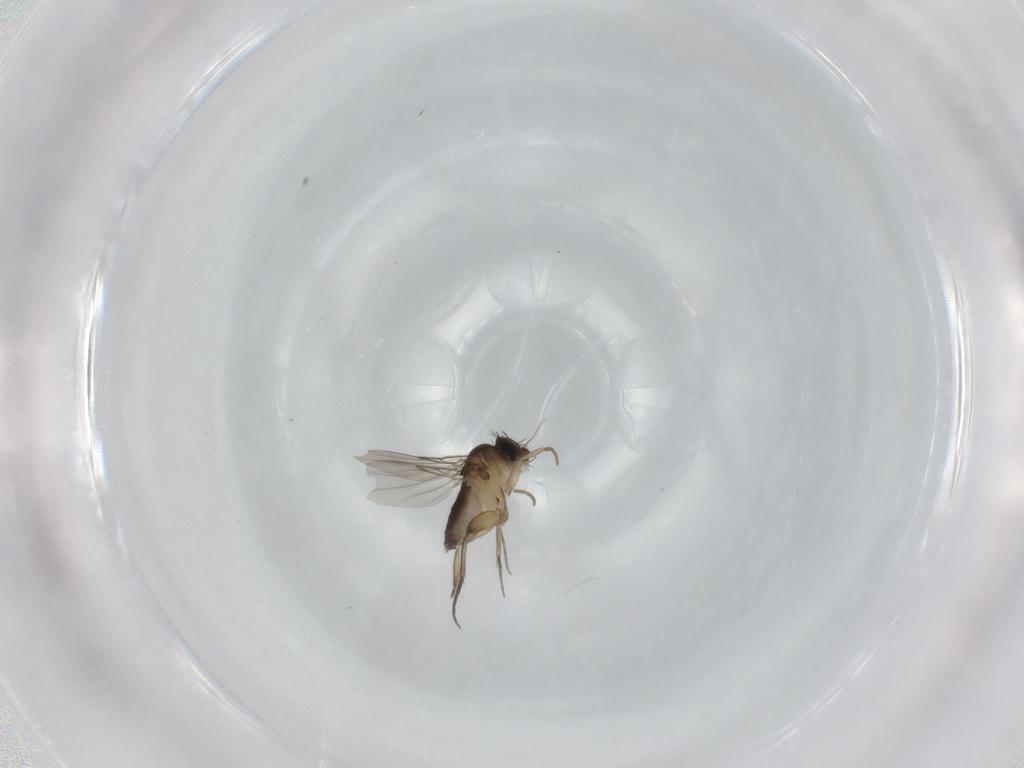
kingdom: Animalia
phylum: Arthropoda
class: Insecta
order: Diptera
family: Phoridae
